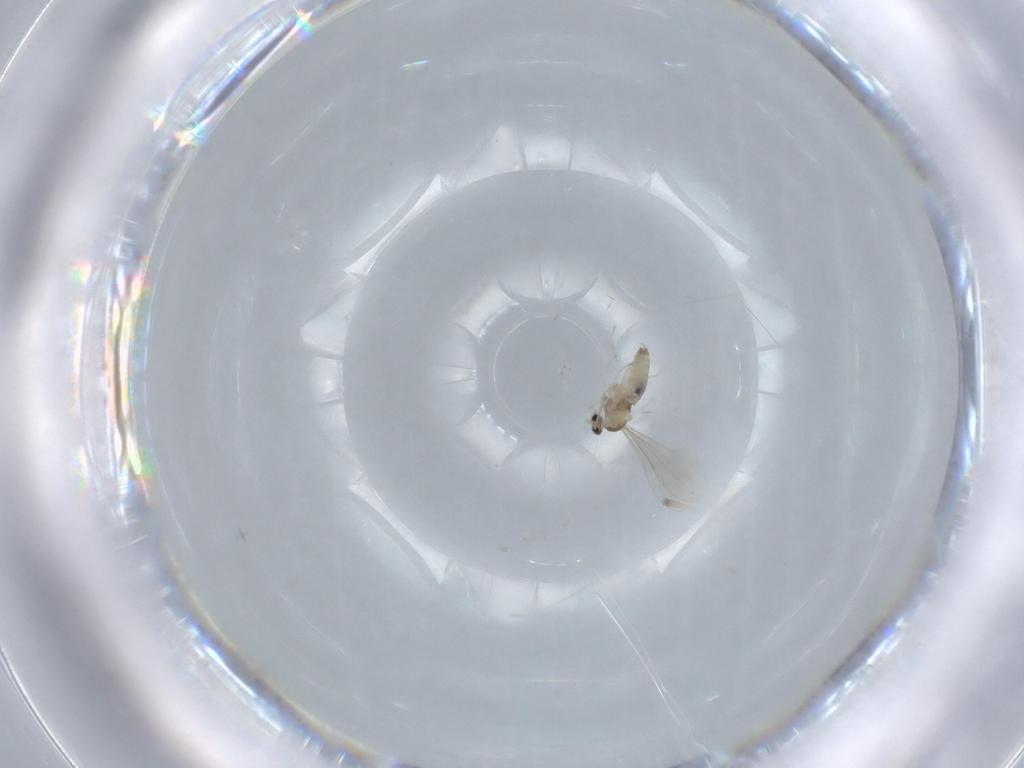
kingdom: Animalia
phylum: Arthropoda
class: Insecta
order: Diptera
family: Cecidomyiidae
